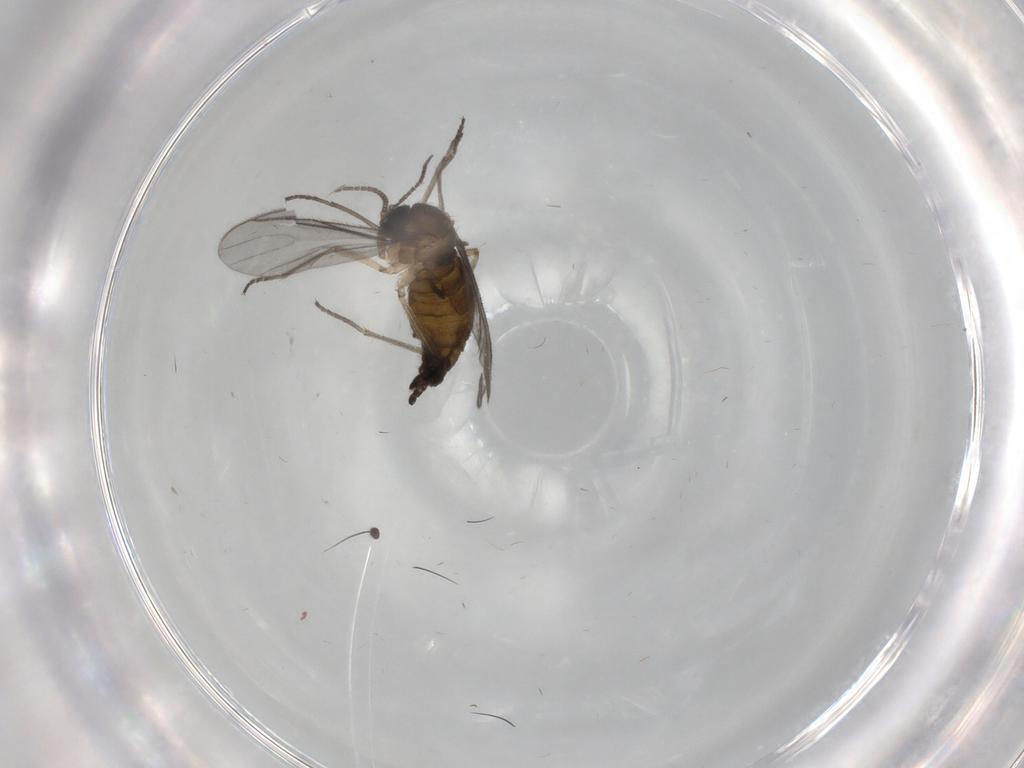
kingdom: Animalia
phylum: Arthropoda
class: Insecta
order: Diptera
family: Sciaridae
